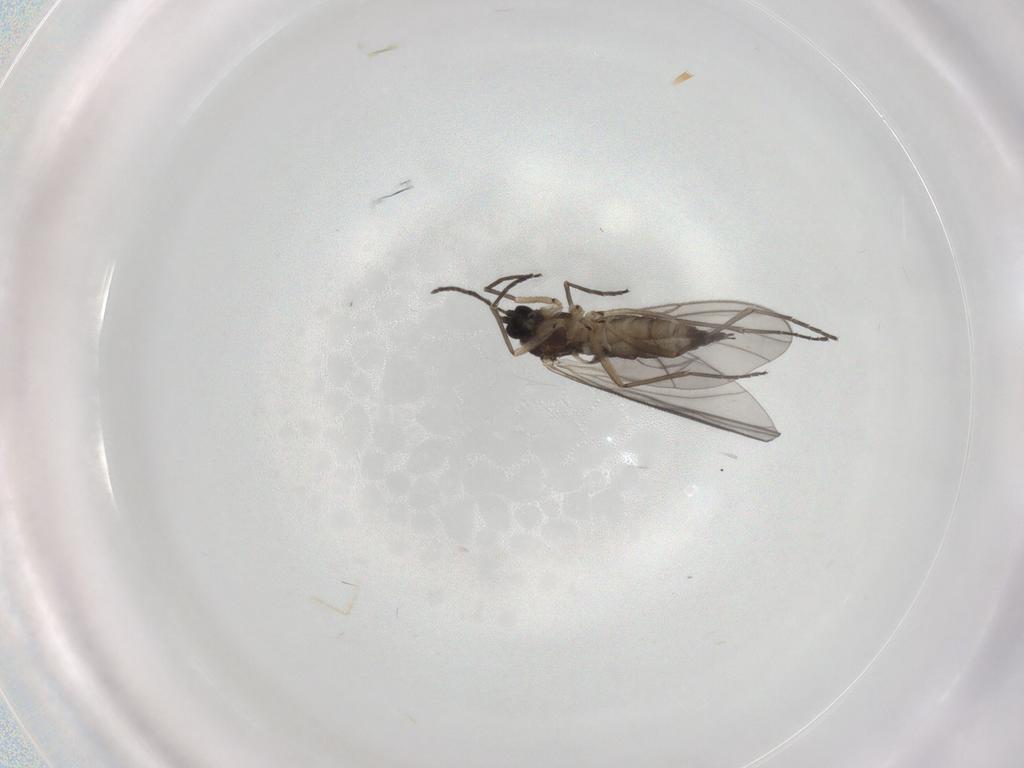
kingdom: Animalia
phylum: Arthropoda
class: Insecta
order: Diptera
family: Sciaridae
